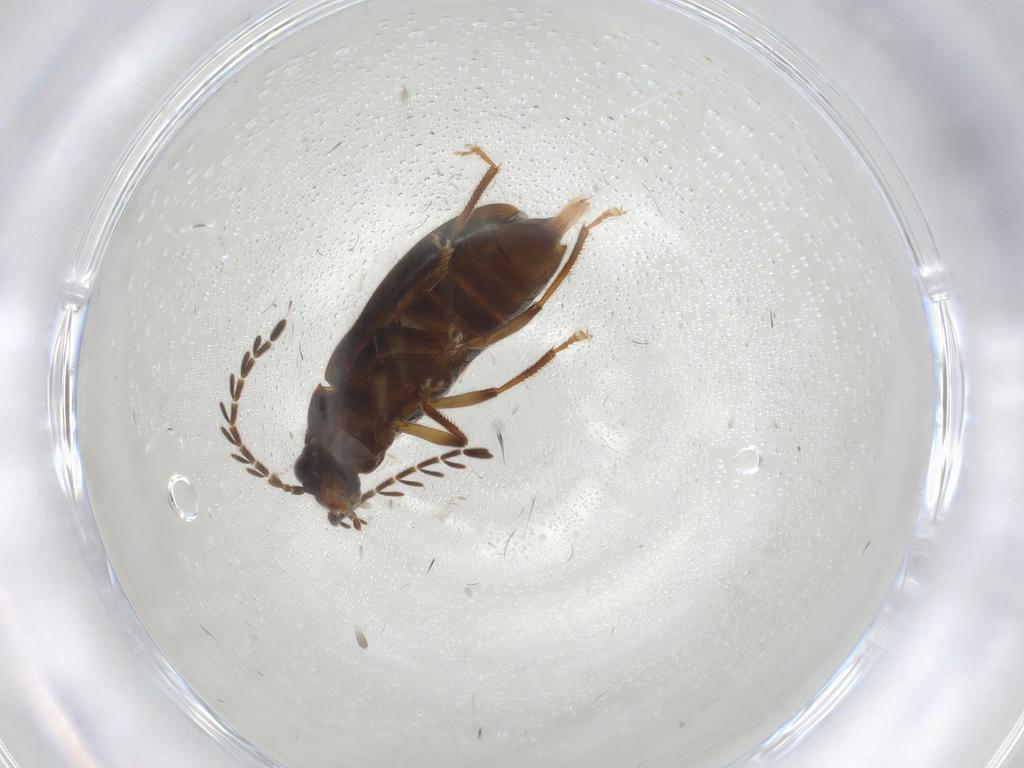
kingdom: Animalia
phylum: Arthropoda
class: Insecta
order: Coleoptera
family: Ptilodactylidae
